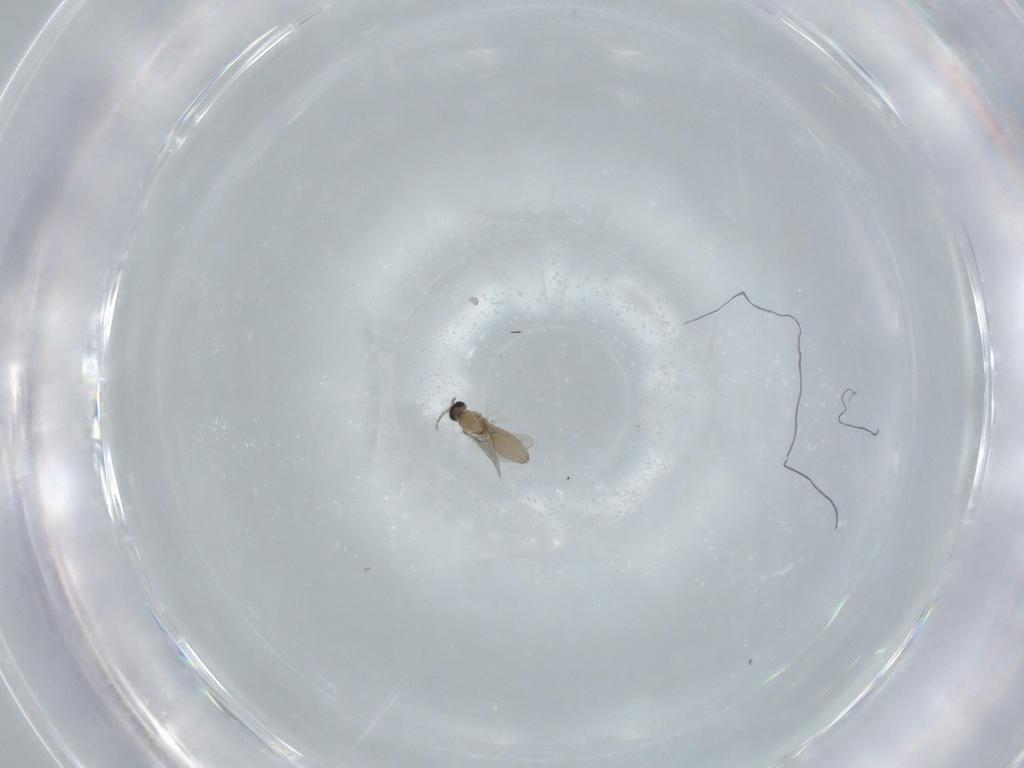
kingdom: Animalia
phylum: Arthropoda
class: Insecta
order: Diptera
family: Cecidomyiidae
